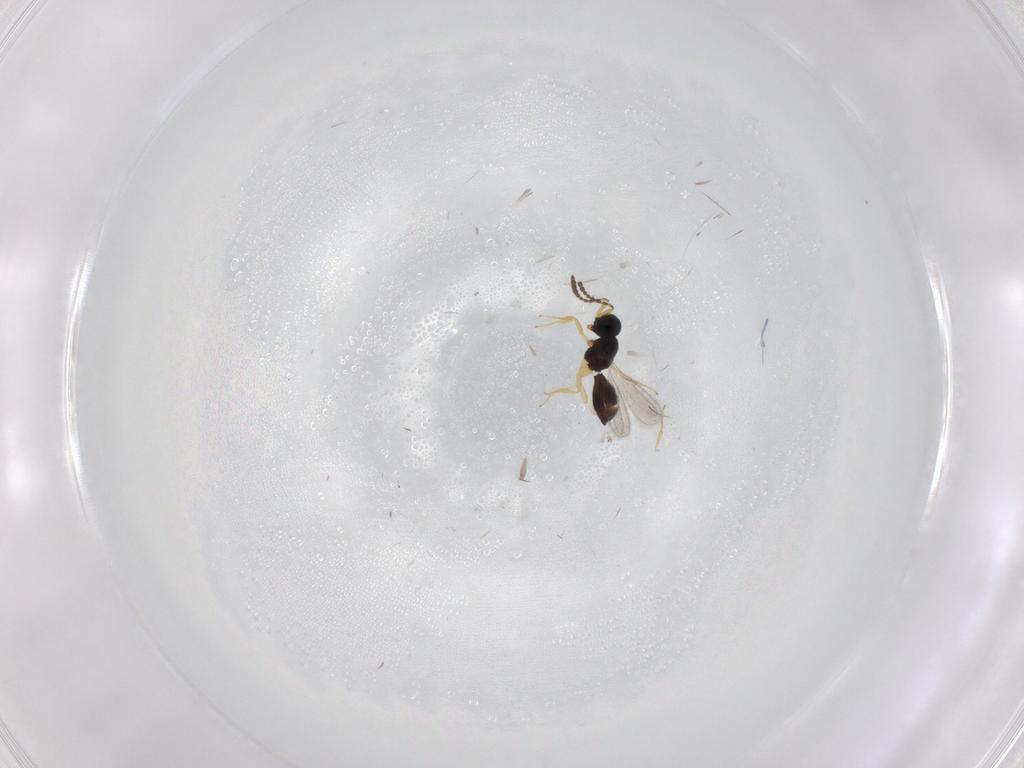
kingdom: Animalia
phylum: Arthropoda
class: Insecta
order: Hymenoptera
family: Scelionidae
